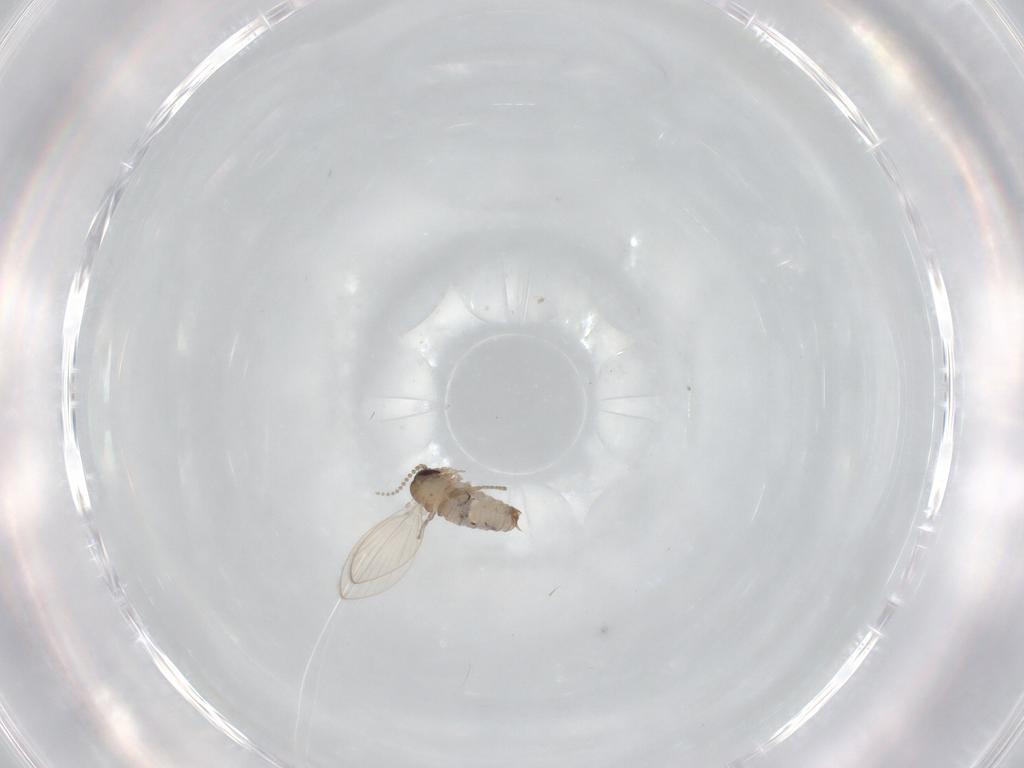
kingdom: Animalia
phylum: Arthropoda
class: Insecta
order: Diptera
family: Psychodidae
